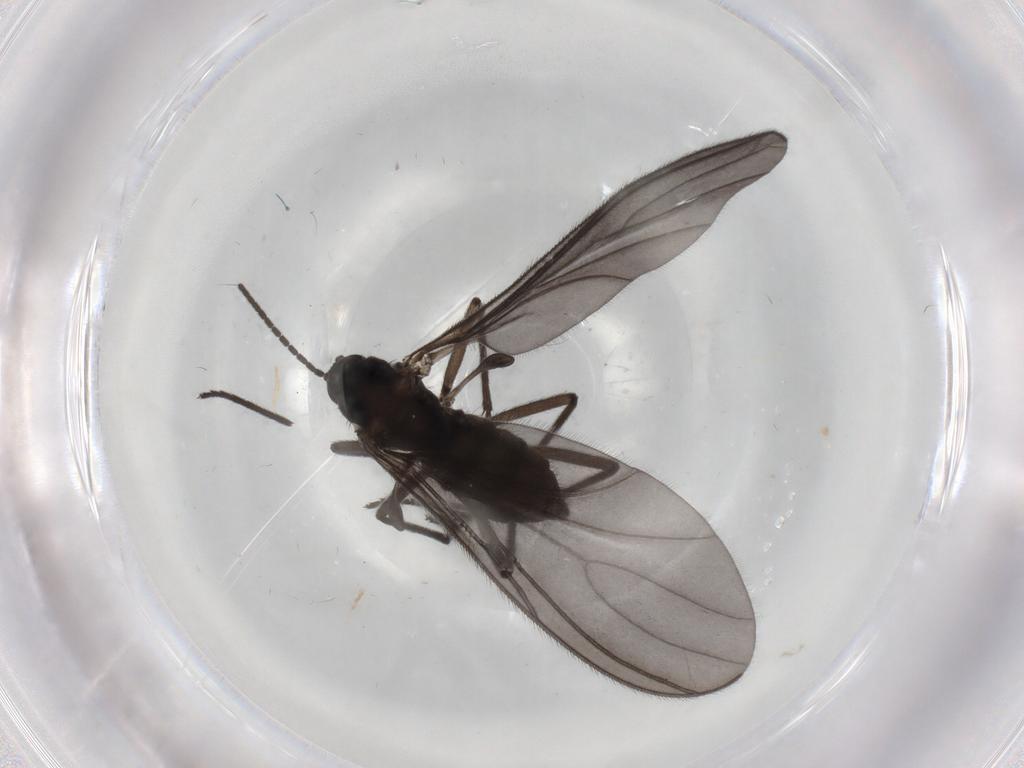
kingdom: Animalia
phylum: Arthropoda
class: Insecta
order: Diptera
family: Sciaridae
